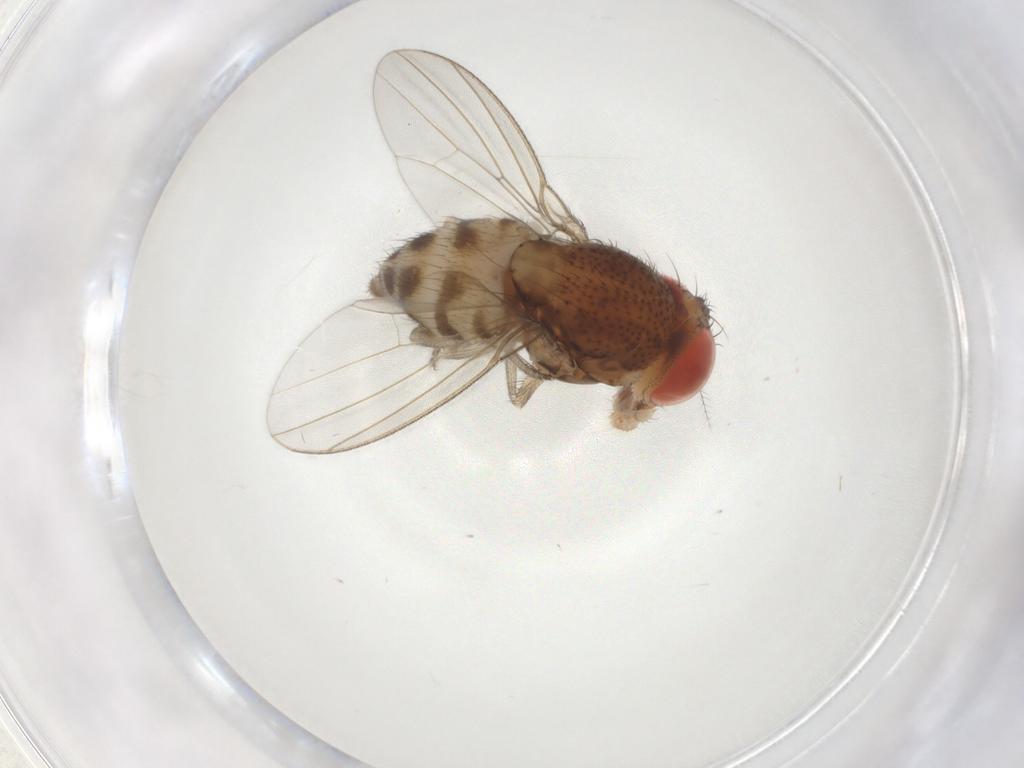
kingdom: Animalia
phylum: Arthropoda
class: Insecta
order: Diptera
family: Drosophilidae
